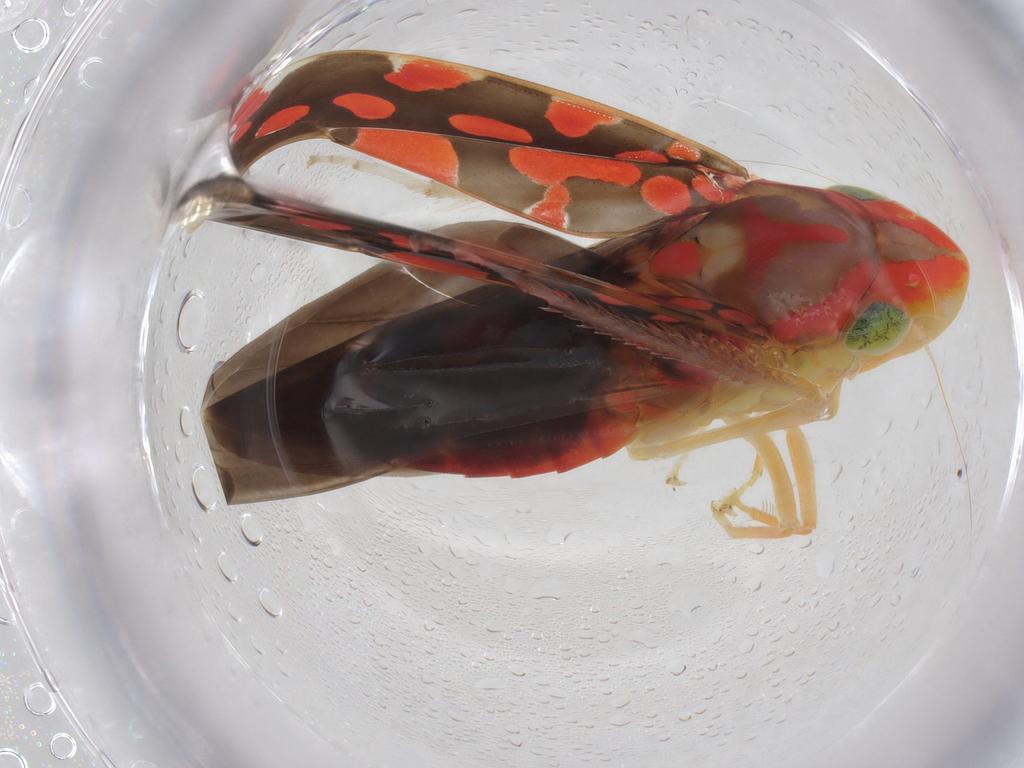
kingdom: Animalia
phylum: Arthropoda
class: Insecta
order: Hemiptera
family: Cicadellidae
